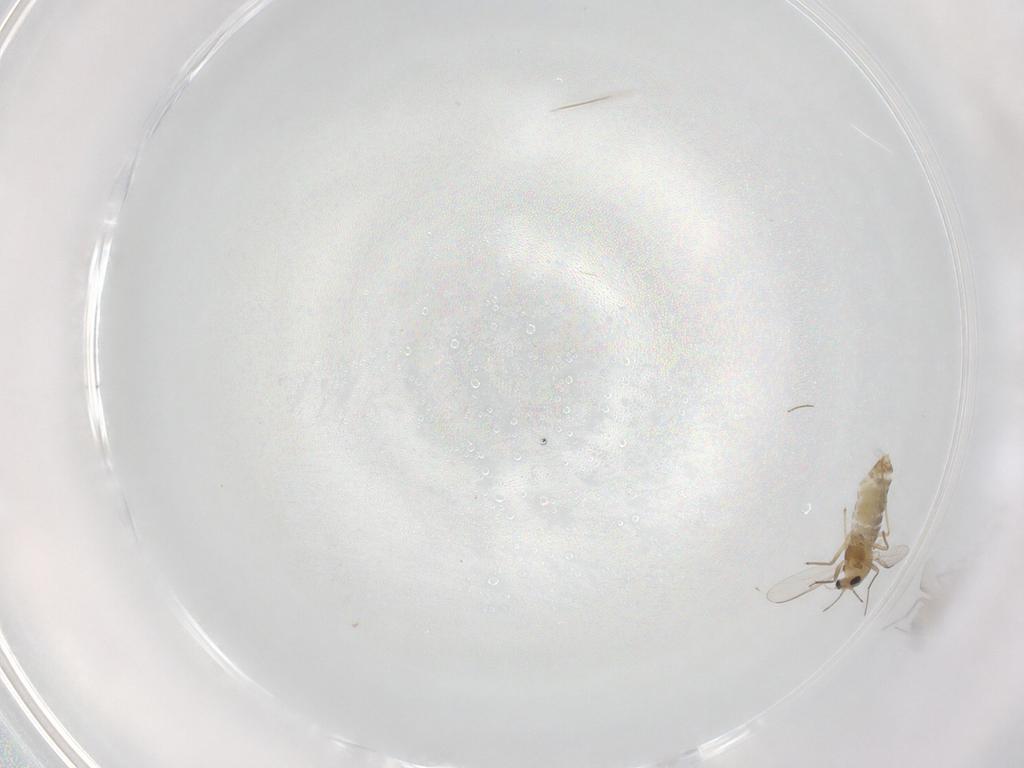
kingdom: Animalia
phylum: Arthropoda
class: Insecta
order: Diptera
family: Chironomidae
